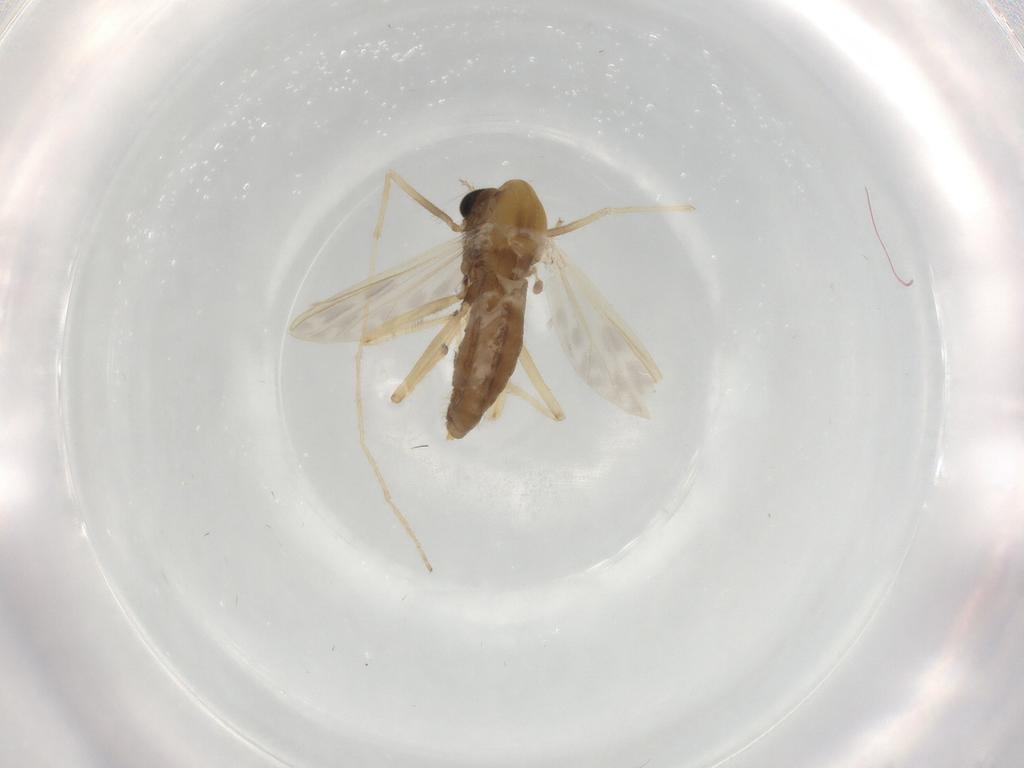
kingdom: Animalia
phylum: Arthropoda
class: Insecta
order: Diptera
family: Chironomidae
